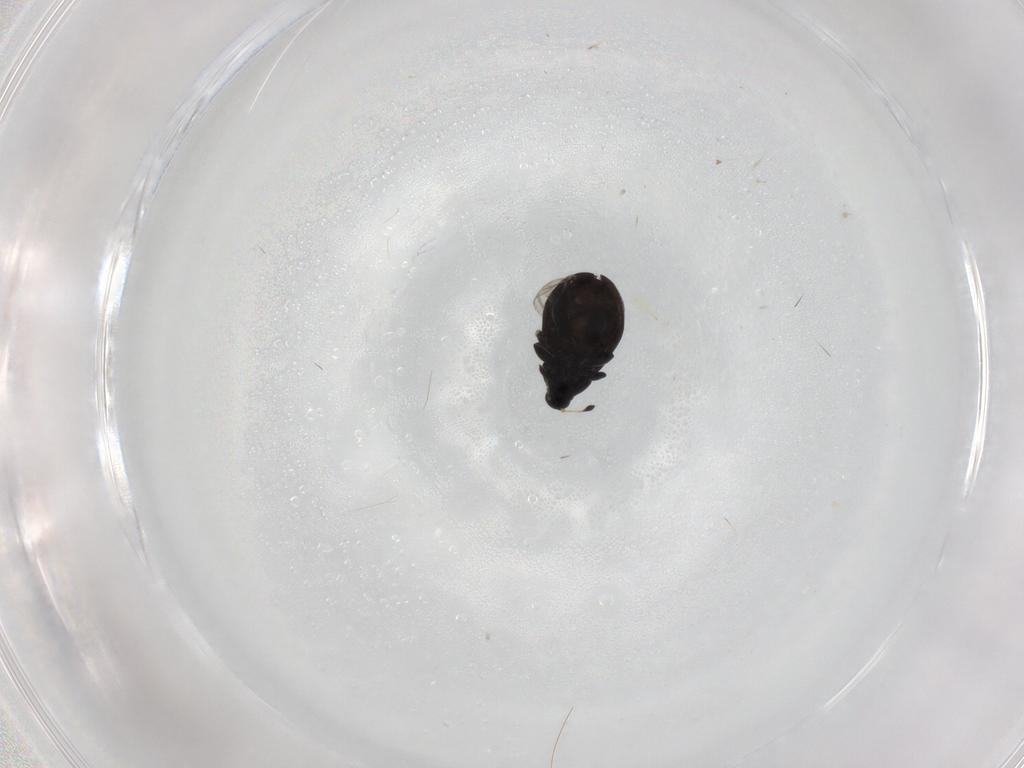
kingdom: Animalia
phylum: Arthropoda
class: Insecta
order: Coleoptera
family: Curculionidae
